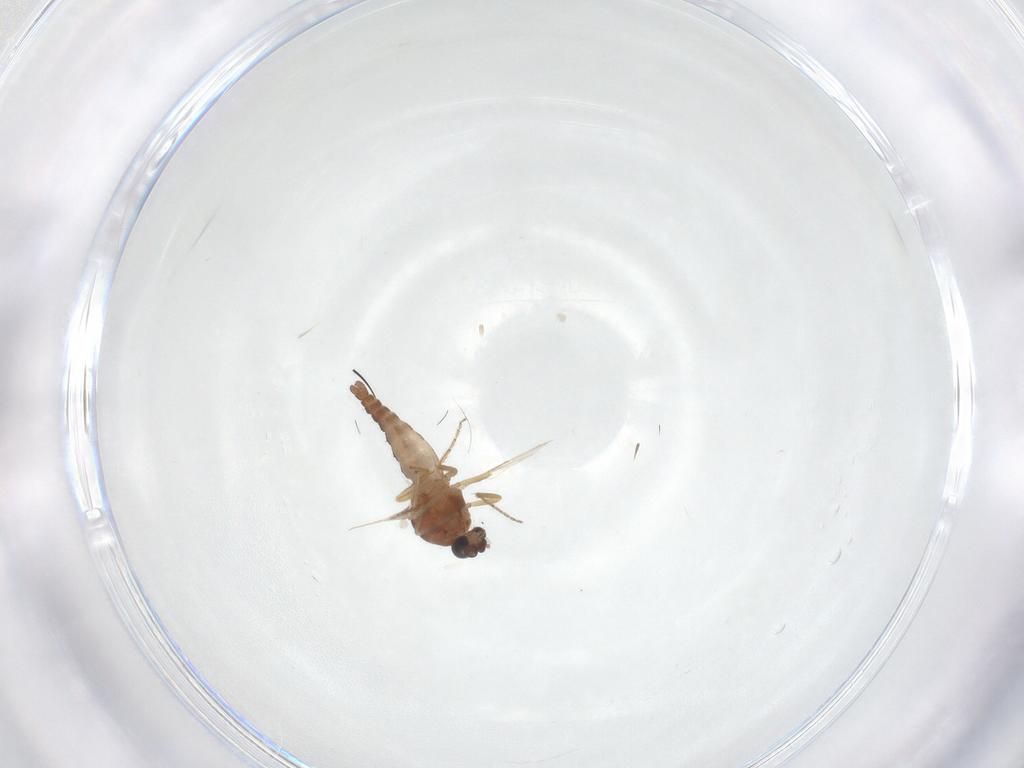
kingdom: Animalia
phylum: Arthropoda
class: Insecta
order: Diptera
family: Ceratopogonidae
